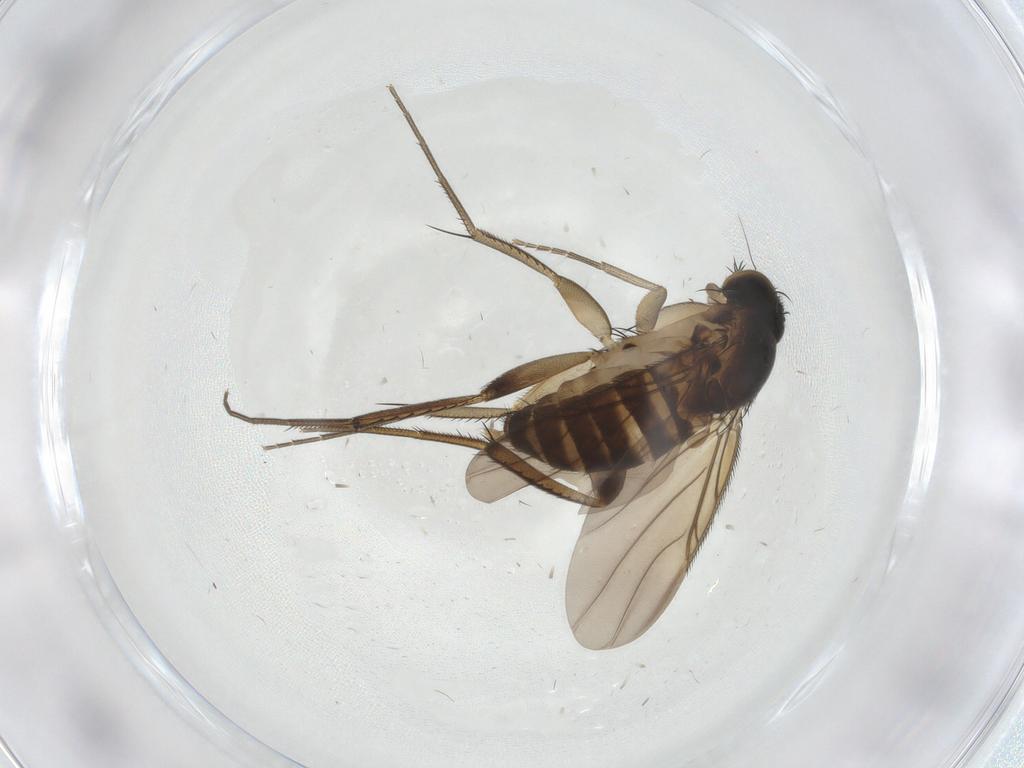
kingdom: Animalia
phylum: Arthropoda
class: Insecta
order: Diptera
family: Phoridae
